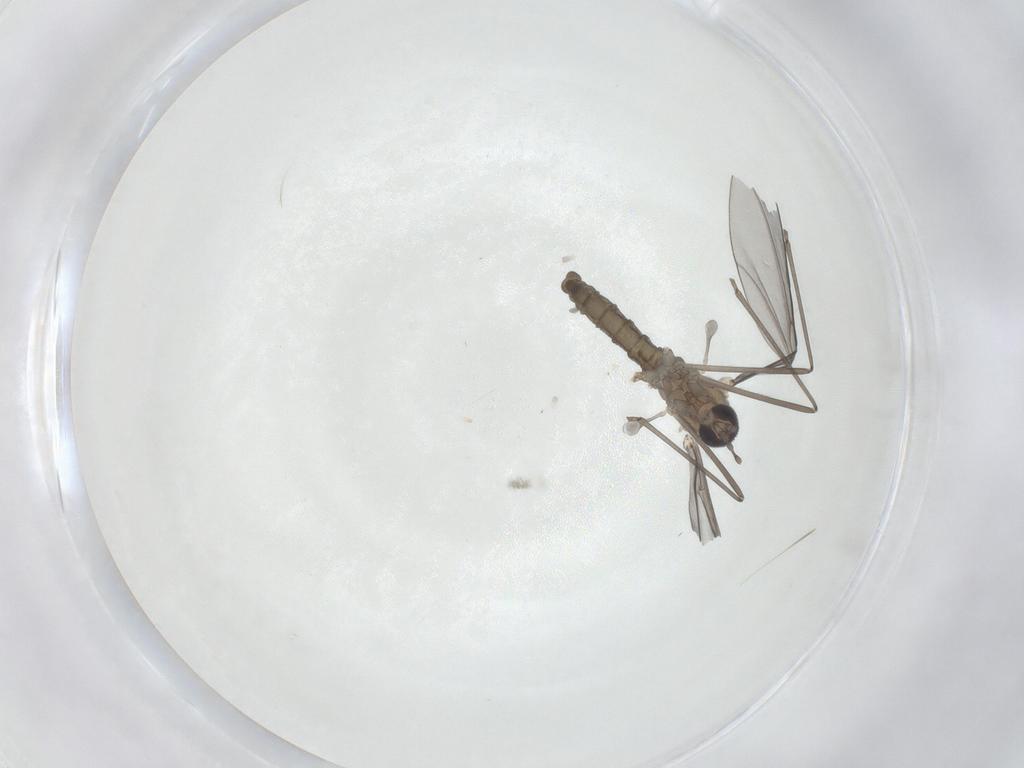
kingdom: Animalia
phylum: Arthropoda
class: Insecta
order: Diptera
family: Cecidomyiidae
